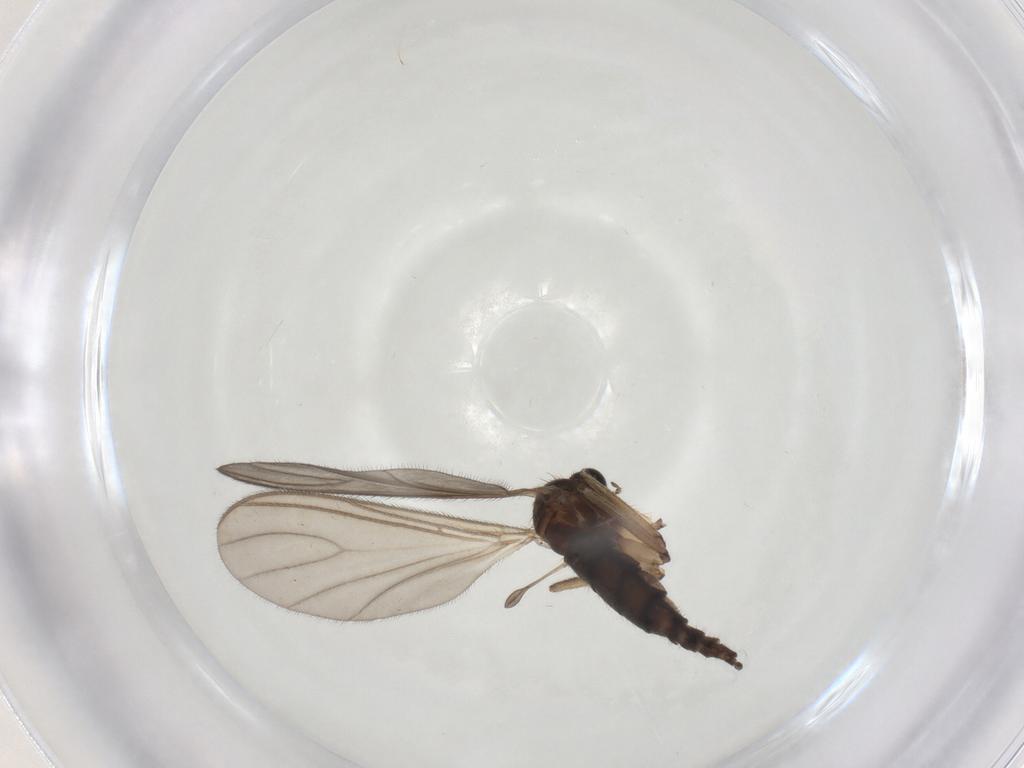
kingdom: Animalia
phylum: Arthropoda
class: Insecta
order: Diptera
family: Sciaridae
